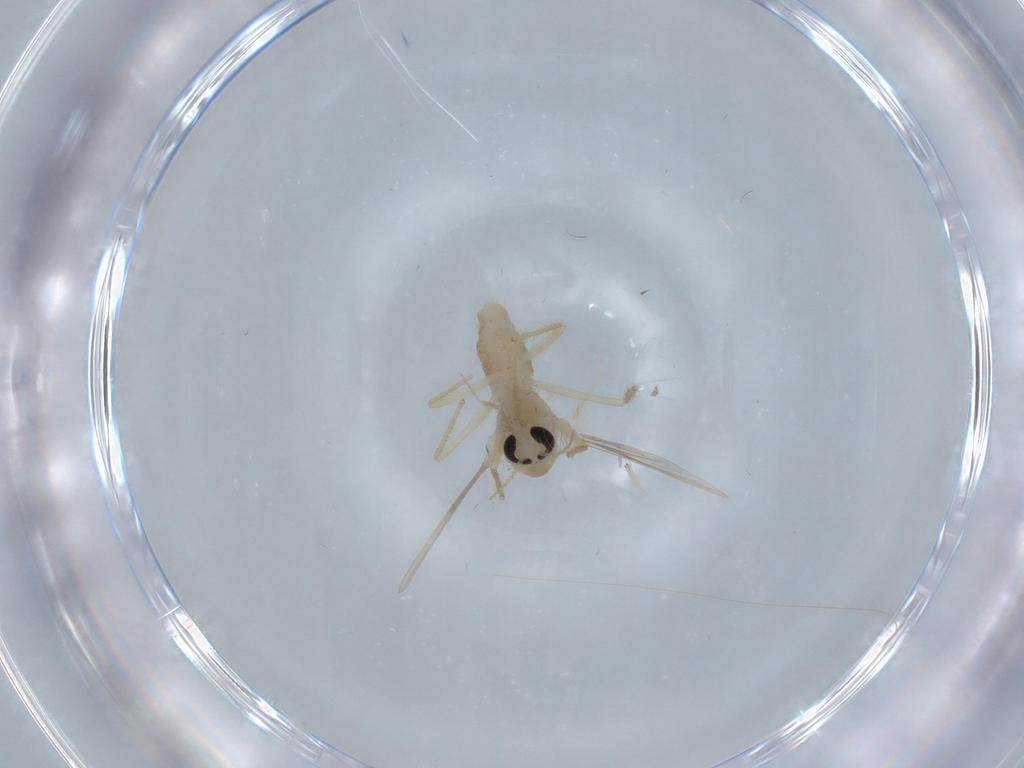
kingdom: Animalia
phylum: Arthropoda
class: Insecta
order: Diptera
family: Chironomidae
